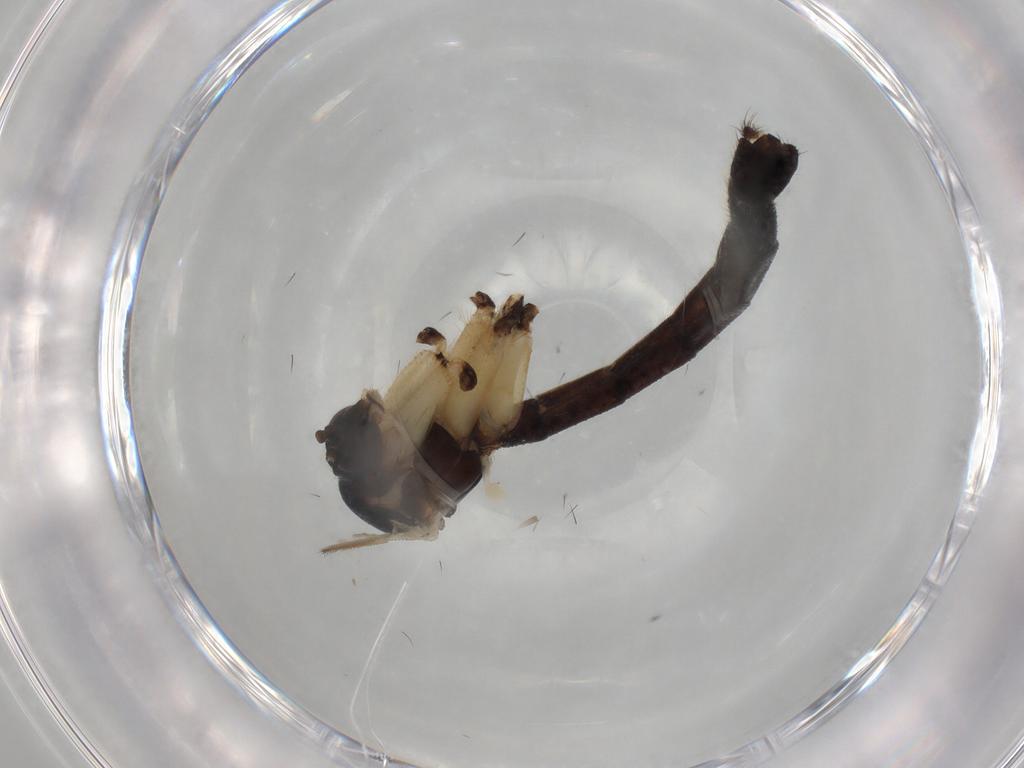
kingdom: Animalia
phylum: Arthropoda
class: Insecta
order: Diptera
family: Mycetophilidae
